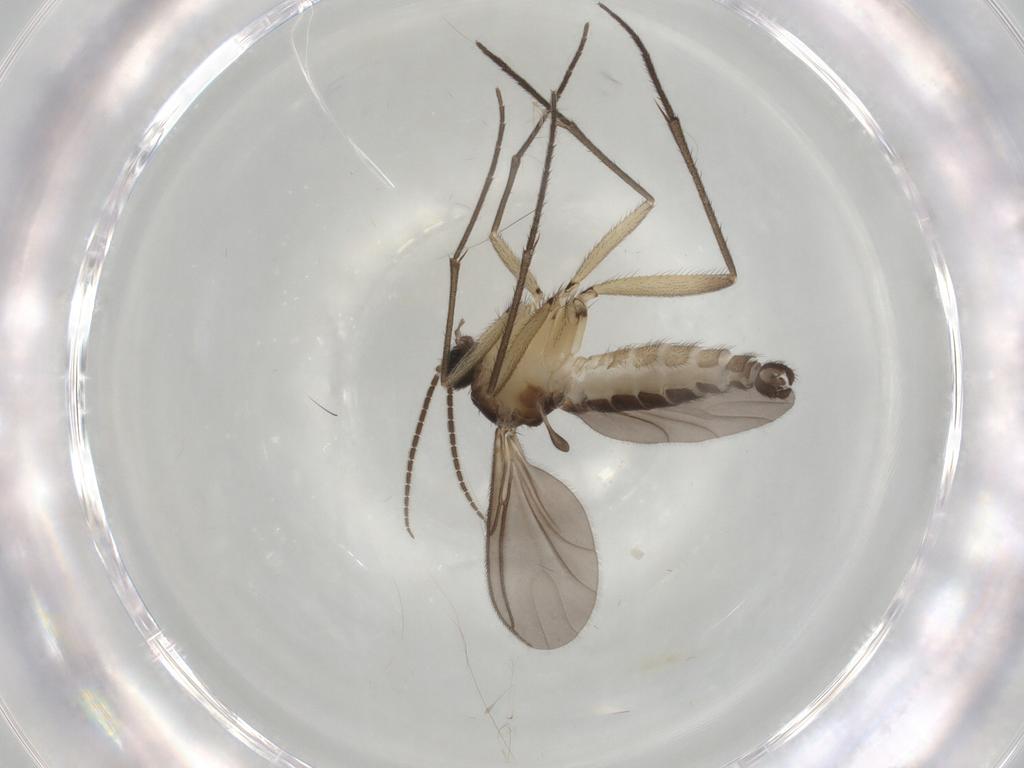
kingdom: Animalia
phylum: Arthropoda
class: Insecta
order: Diptera
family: Sciaridae
